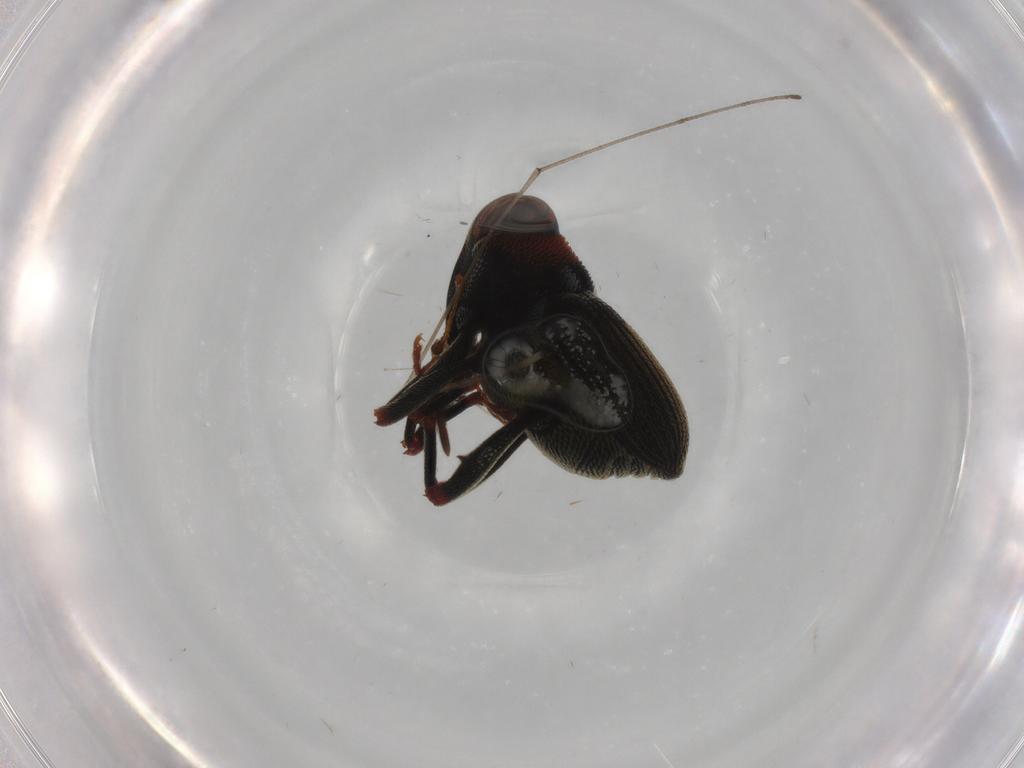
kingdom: Animalia
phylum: Arthropoda
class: Insecta
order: Coleoptera
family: Curculionidae
